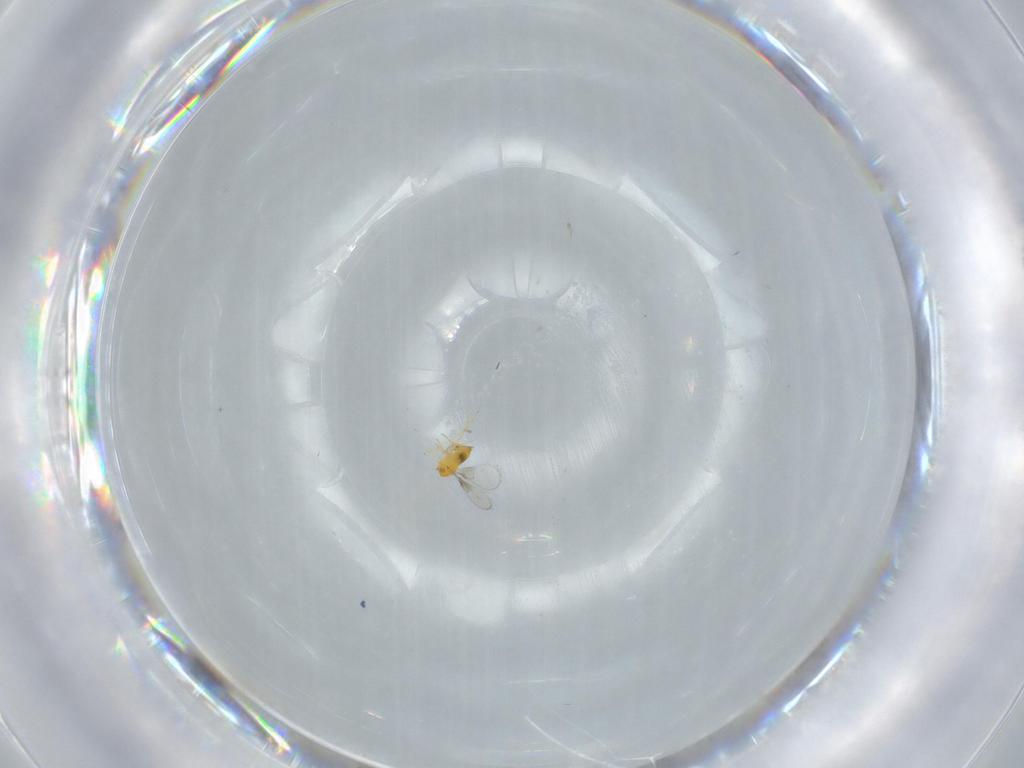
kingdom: Animalia
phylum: Arthropoda
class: Insecta
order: Hymenoptera
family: Trichogrammatidae
